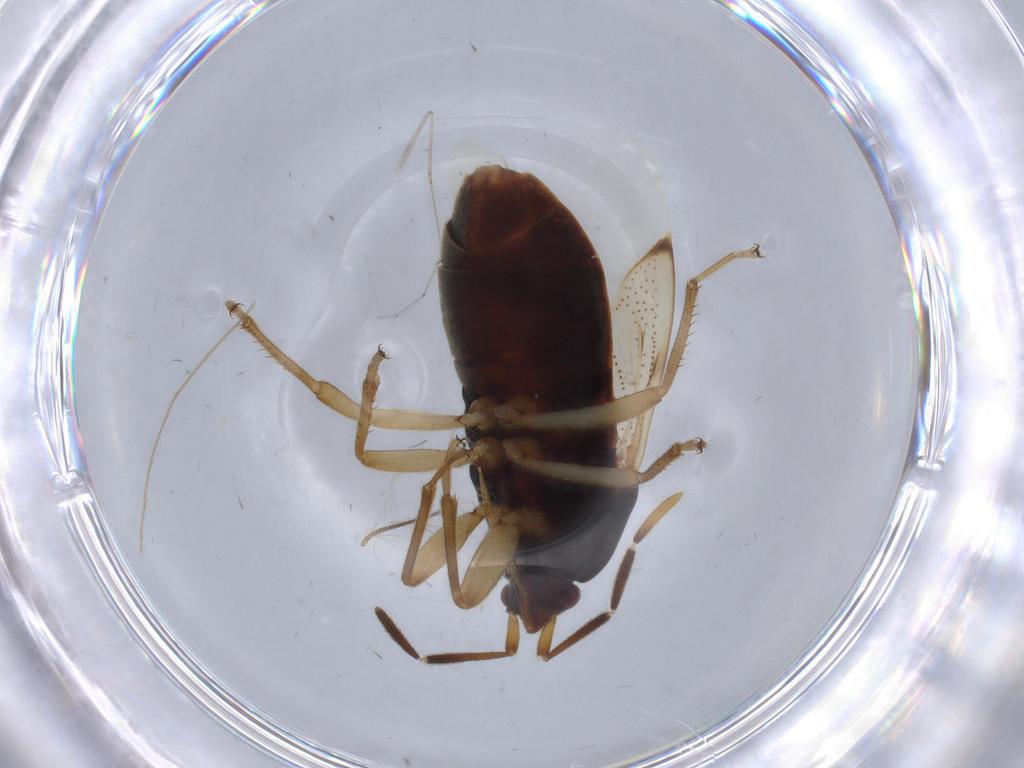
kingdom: Animalia
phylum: Arthropoda
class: Insecta
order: Hemiptera
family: Rhyparochromidae
